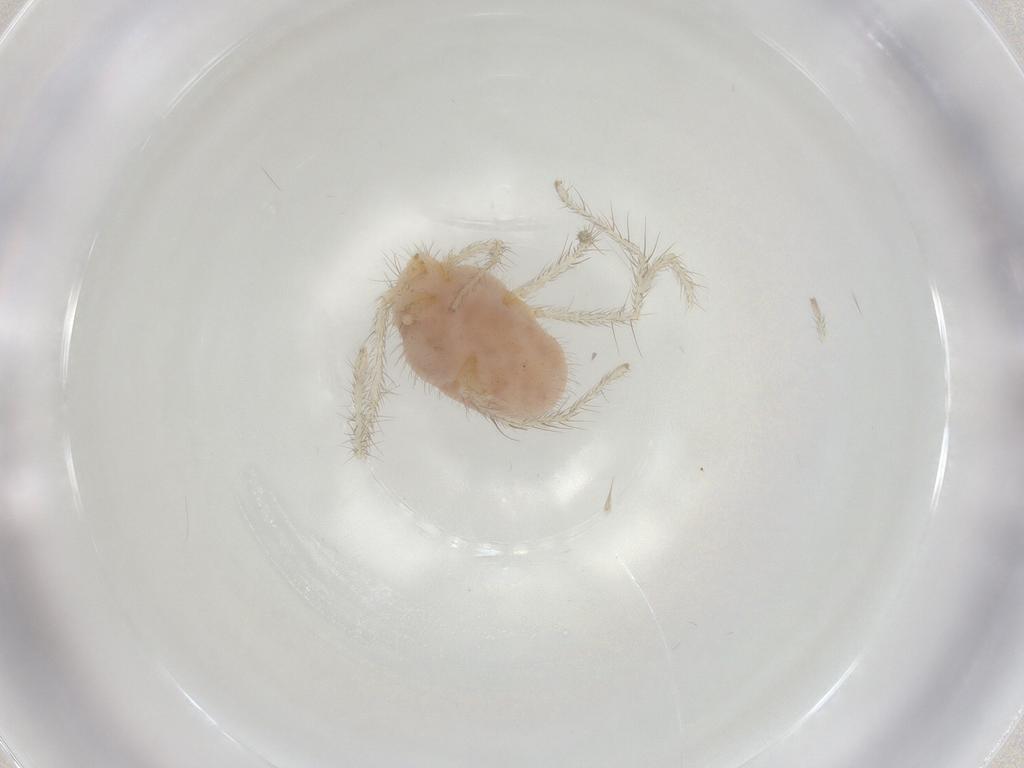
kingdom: Animalia
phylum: Arthropoda
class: Arachnida
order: Trombidiformes
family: Erythraeidae
